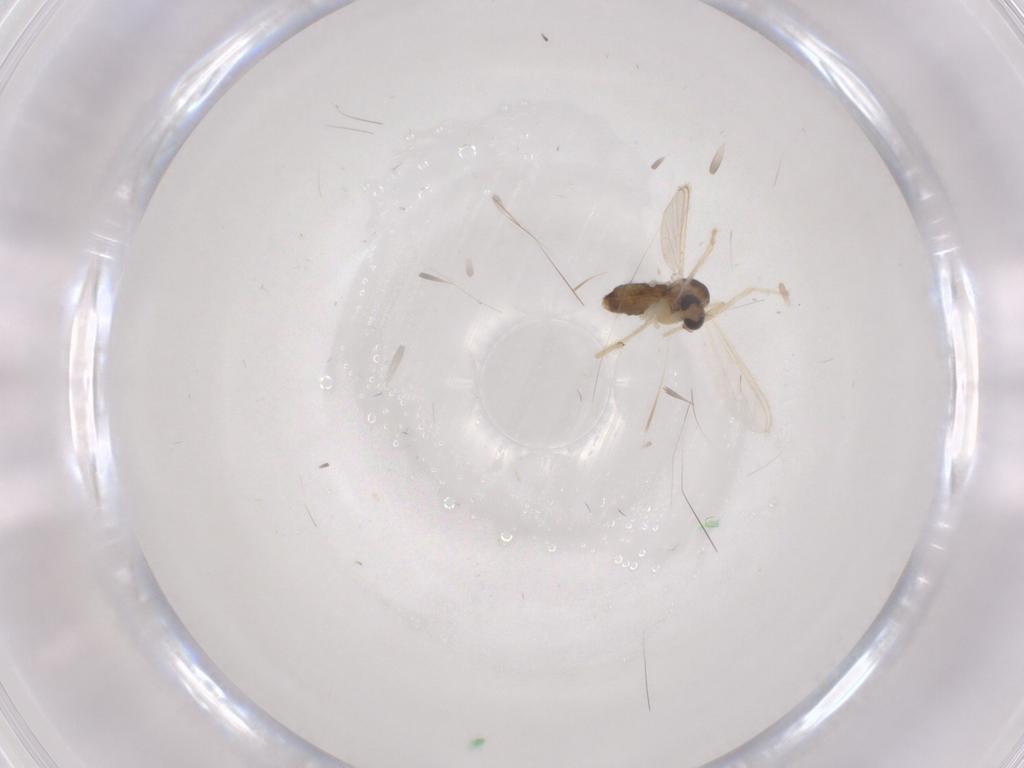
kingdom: Animalia
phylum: Arthropoda
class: Insecta
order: Diptera
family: Chironomidae
